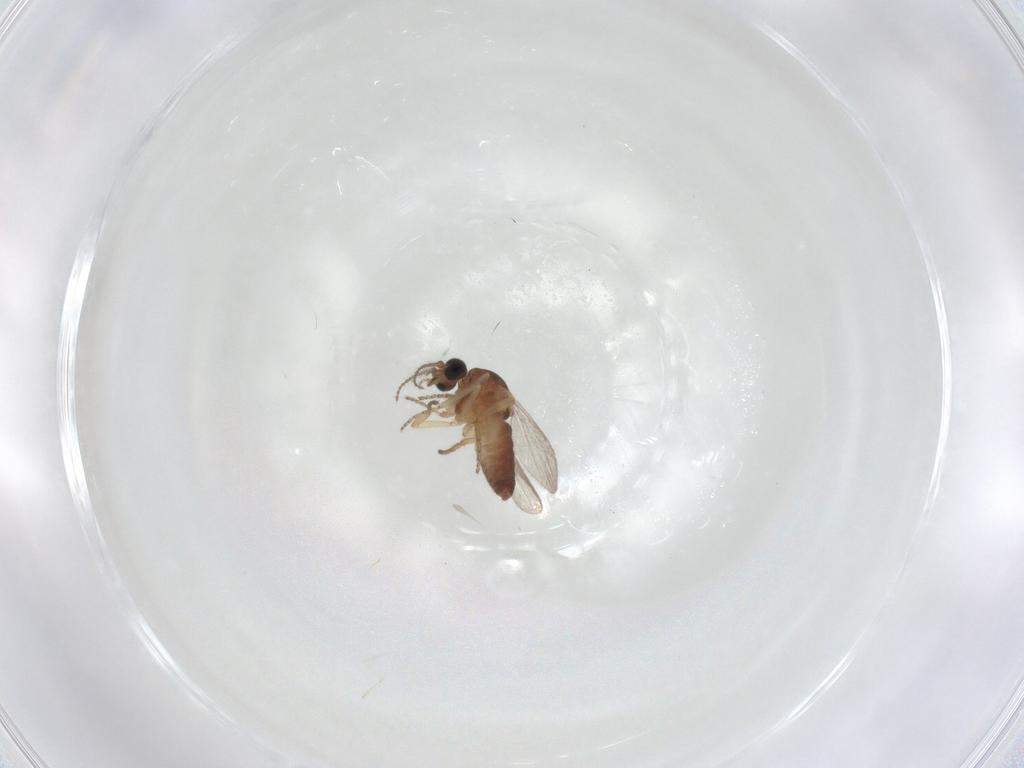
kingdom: Animalia
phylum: Arthropoda
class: Insecta
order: Diptera
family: Ceratopogonidae
